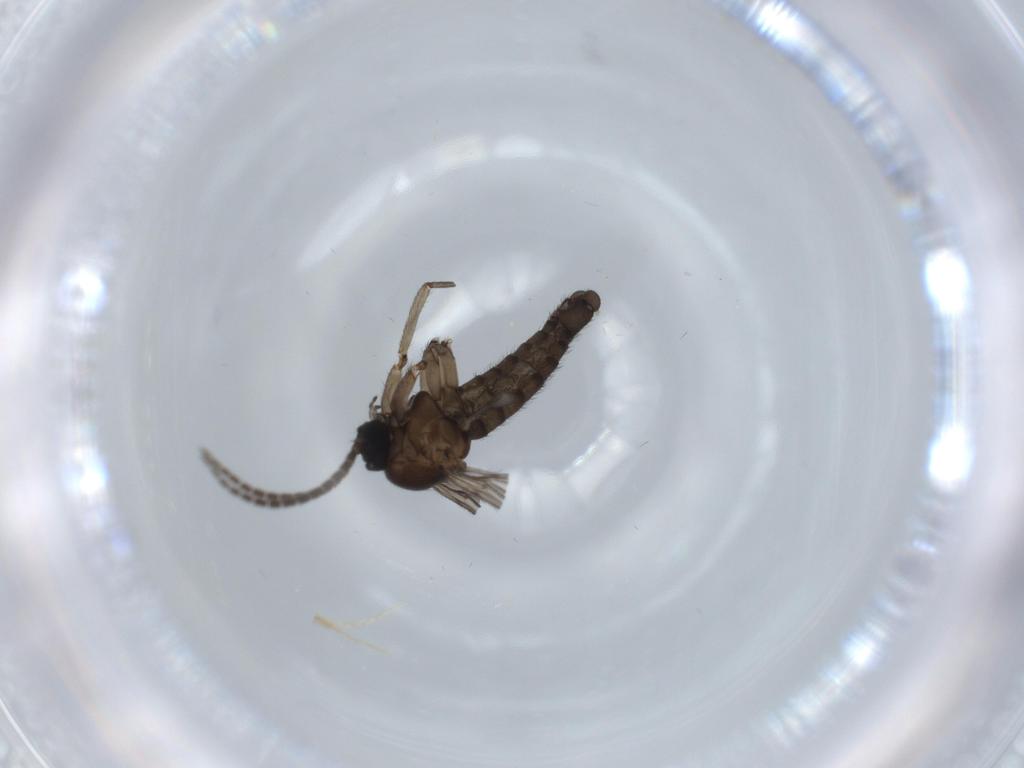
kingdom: Animalia
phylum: Arthropoda
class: Insecta
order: Diptera
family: Sciaridae
